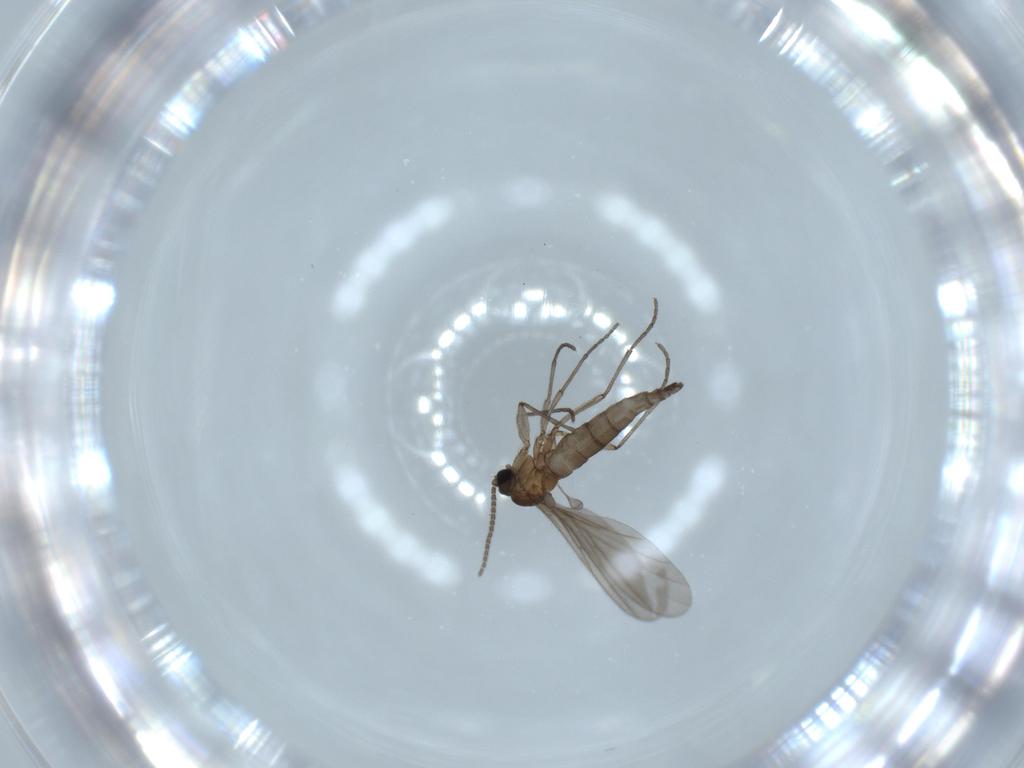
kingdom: Animalia
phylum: Arthropoda
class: Insecta
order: Diptera
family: Sciaridae
